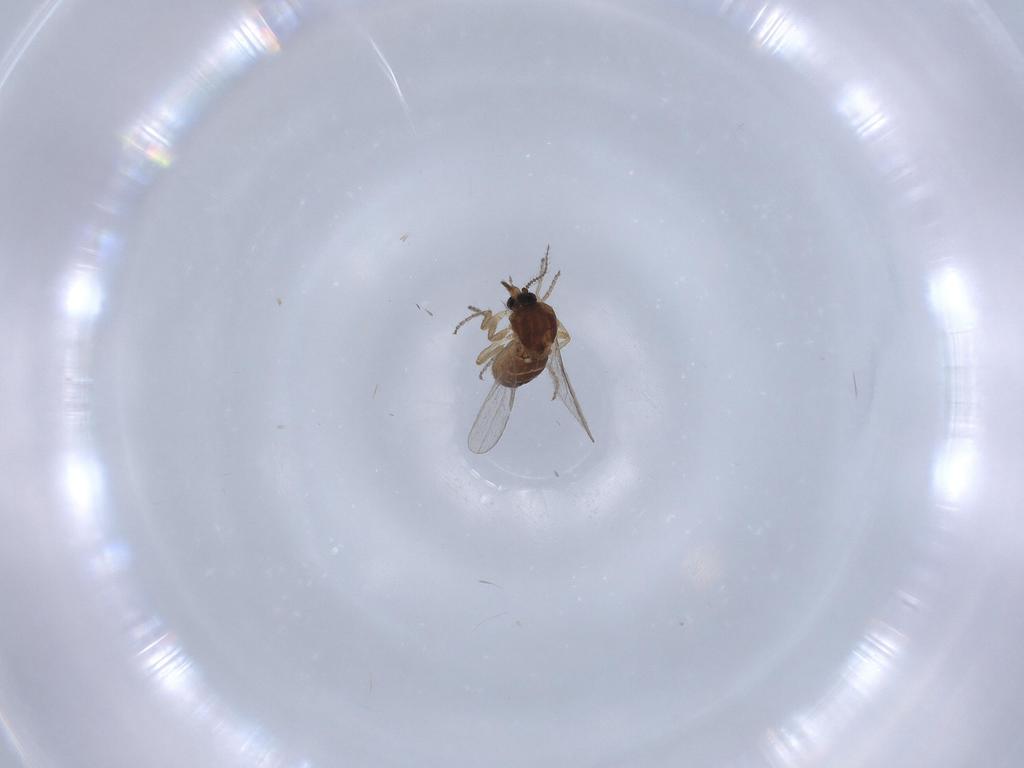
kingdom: Animalia
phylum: Arthropoda
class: Insecta
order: Diptera
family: Ceratopogonidae
